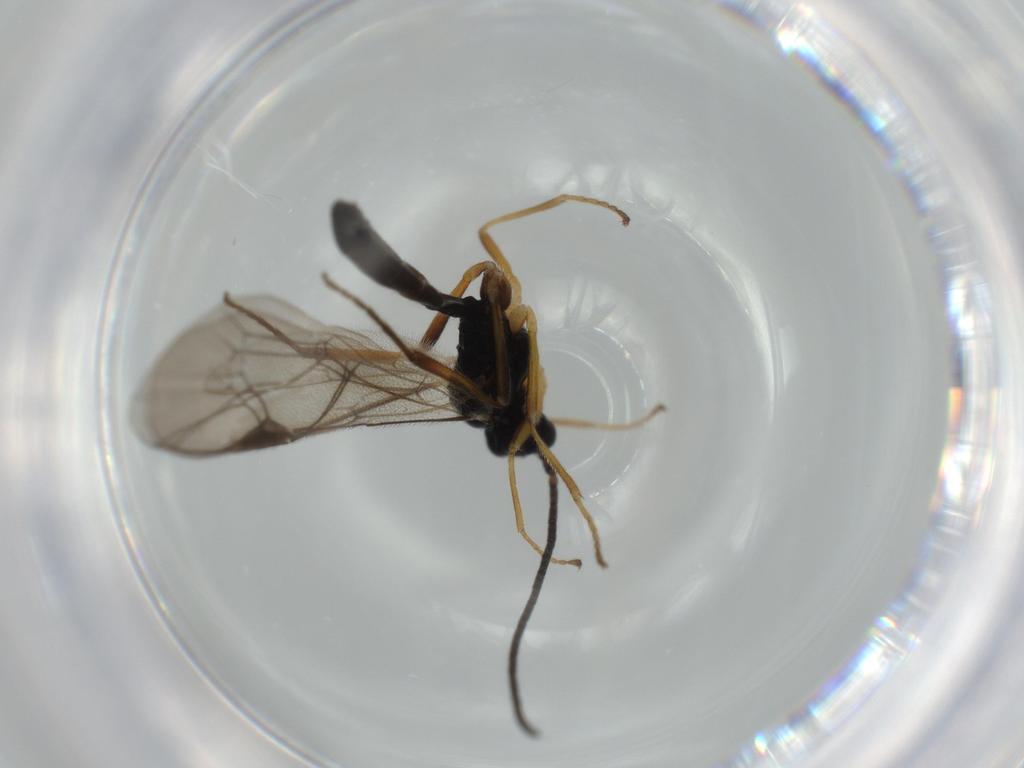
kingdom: Animalia
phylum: Arthropoda
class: Insecta
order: Hymenoptera
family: Ichneumonidae
